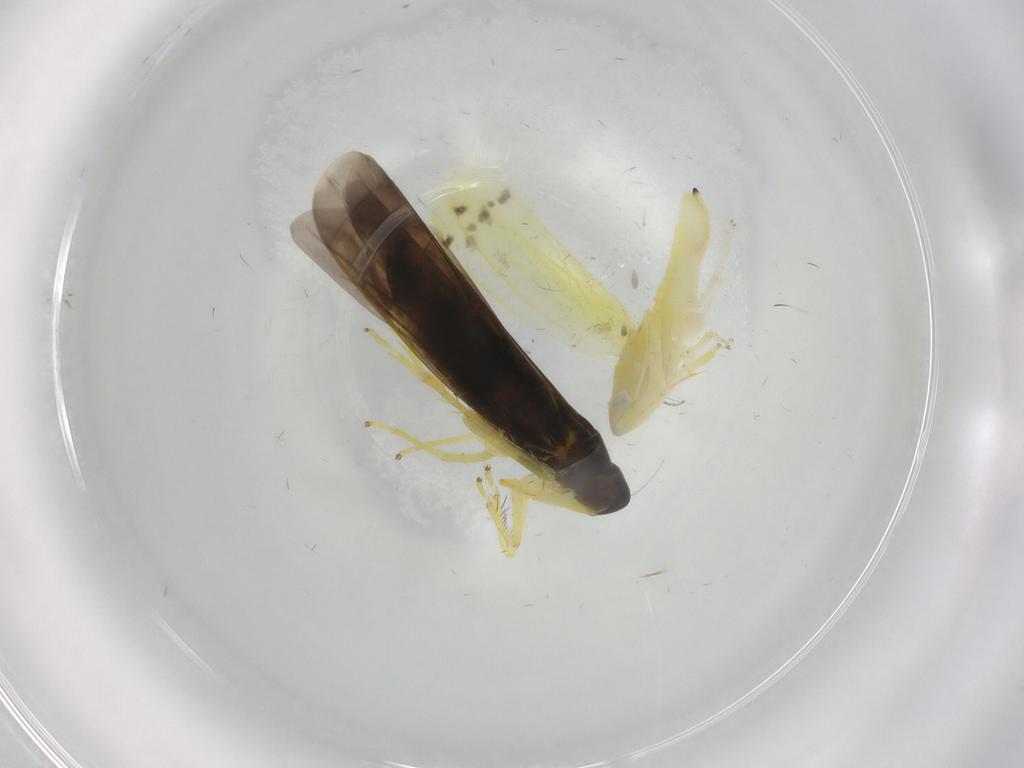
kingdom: Animalia
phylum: Arthropoda
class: Insecta
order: Hemiptera
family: Cicadellidae
